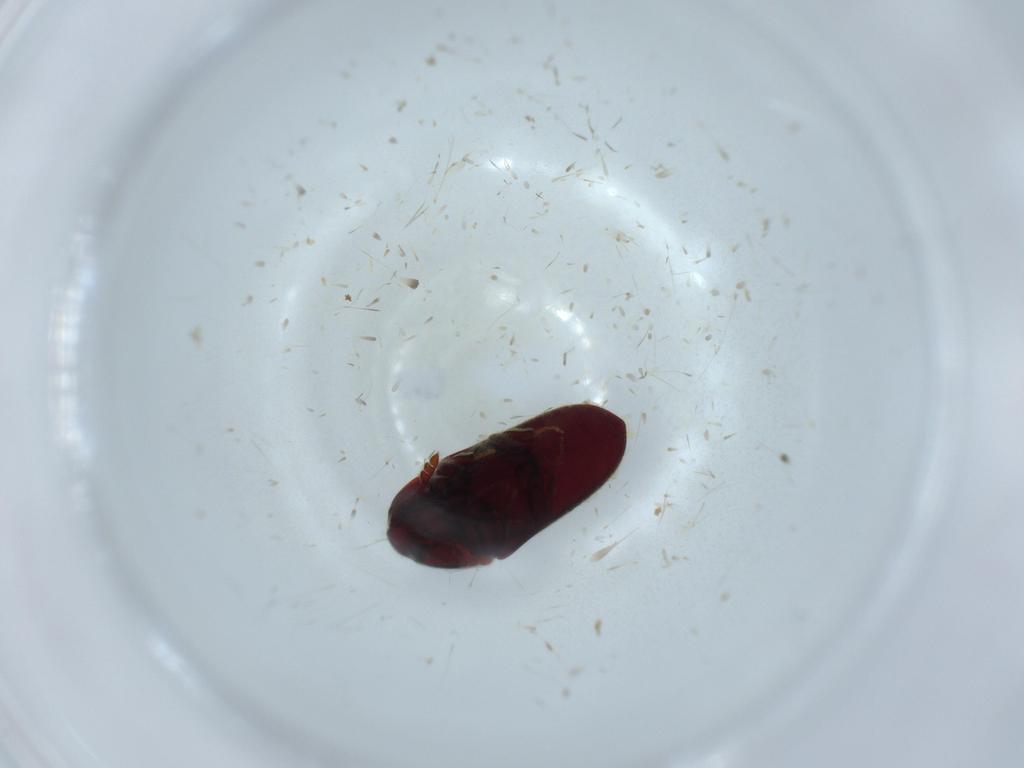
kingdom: Animalia
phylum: Arthropoda
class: Insecta
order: Coleoptera
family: Throscidae
